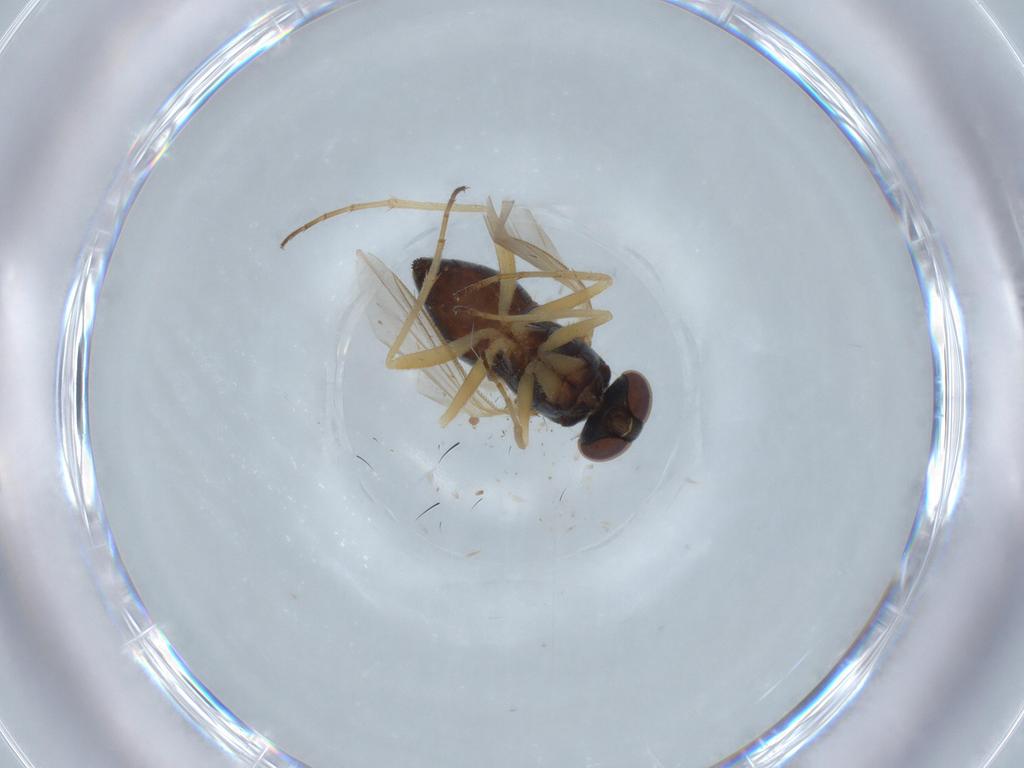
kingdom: Animalia
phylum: Arthropoda
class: Insecta
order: Diptera
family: Dolichopodidae
